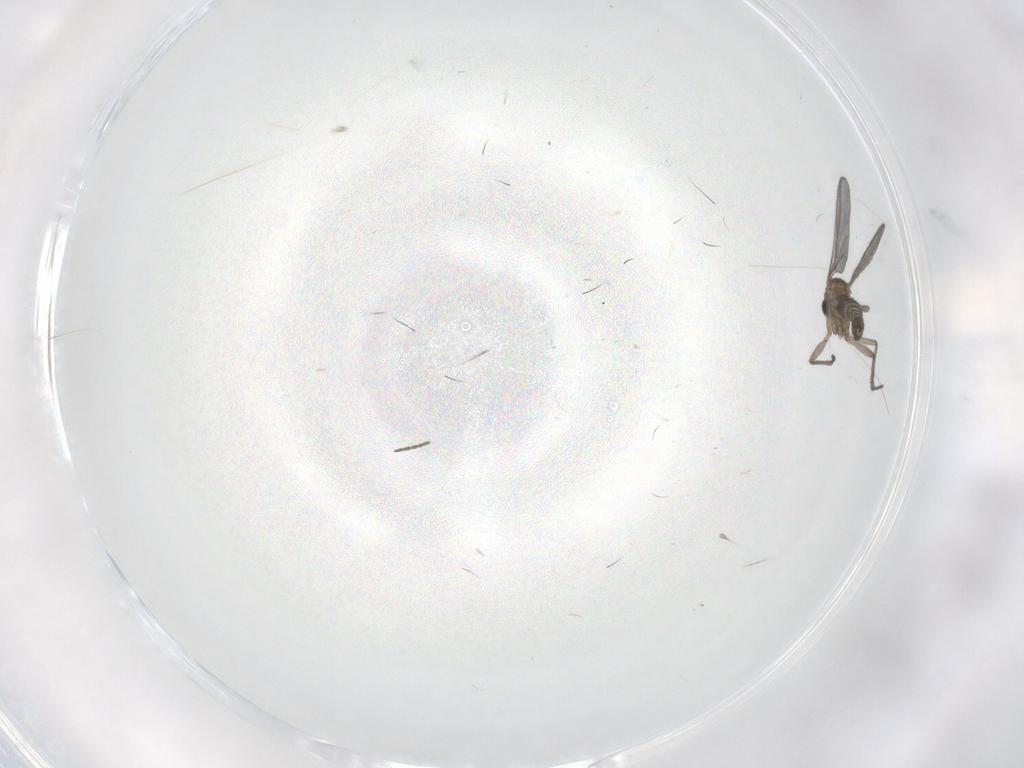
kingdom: Animalia
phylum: Arthropoda
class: Insecta
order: Diptera
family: Sciaridae
